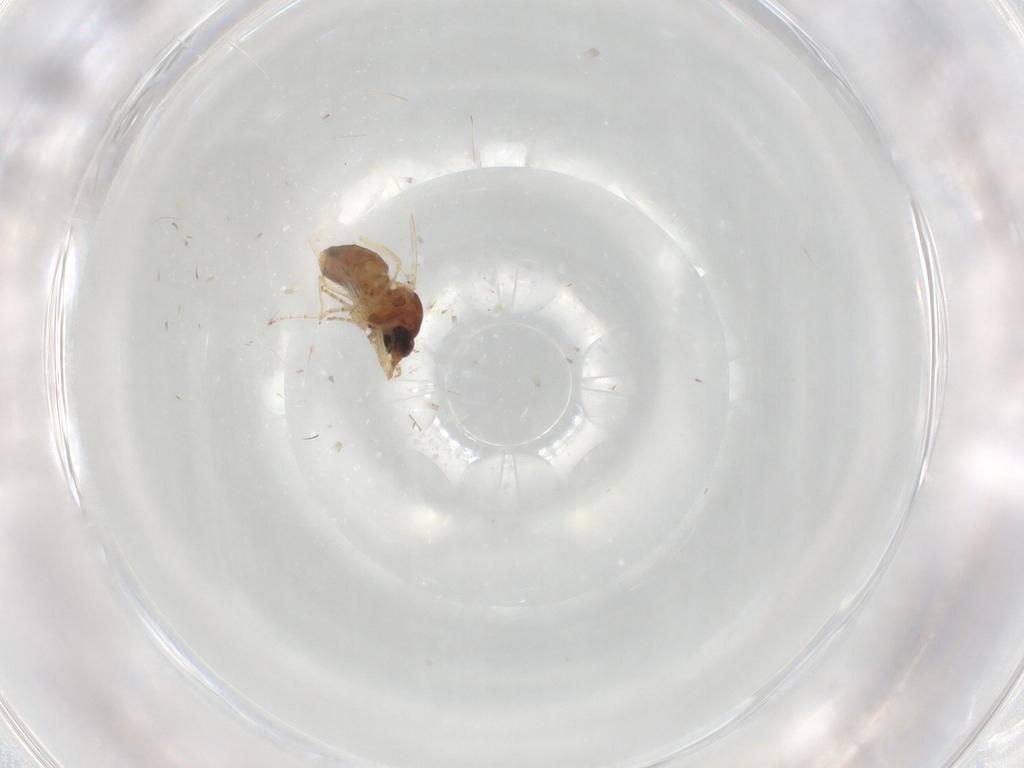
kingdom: Animalia
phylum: Arthropoda
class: Insecta
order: Diptera
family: Ceratopogonidae
